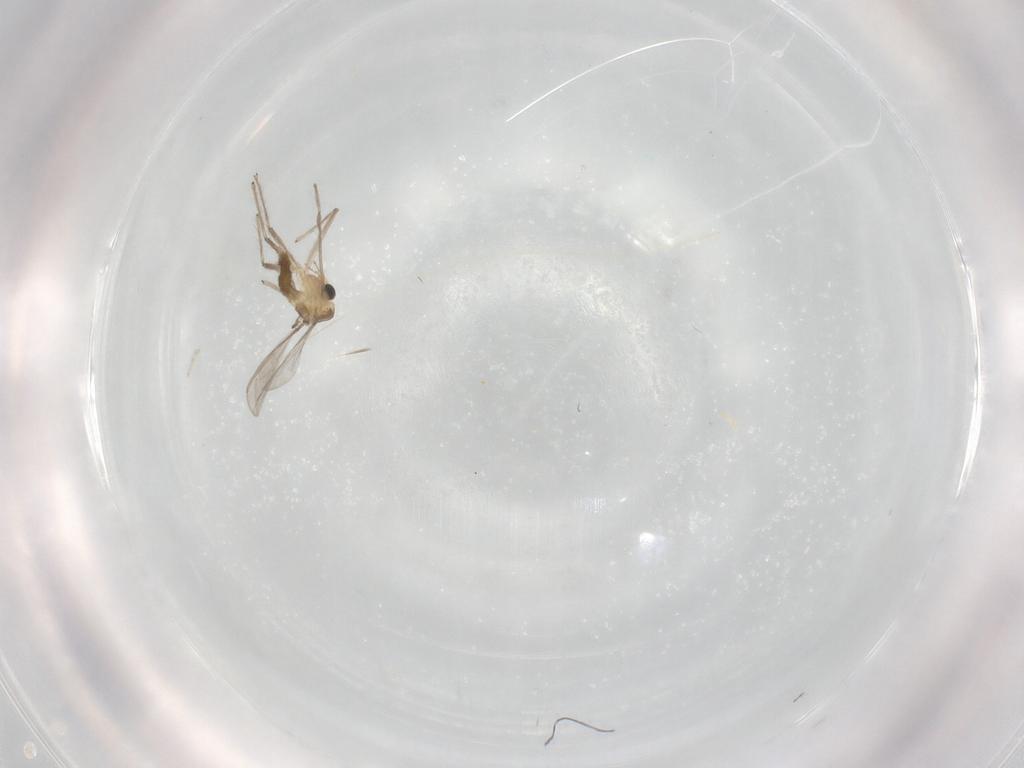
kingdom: Animalia
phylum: Arthropoda
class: Insecta
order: Diptera
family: Chironomidae
